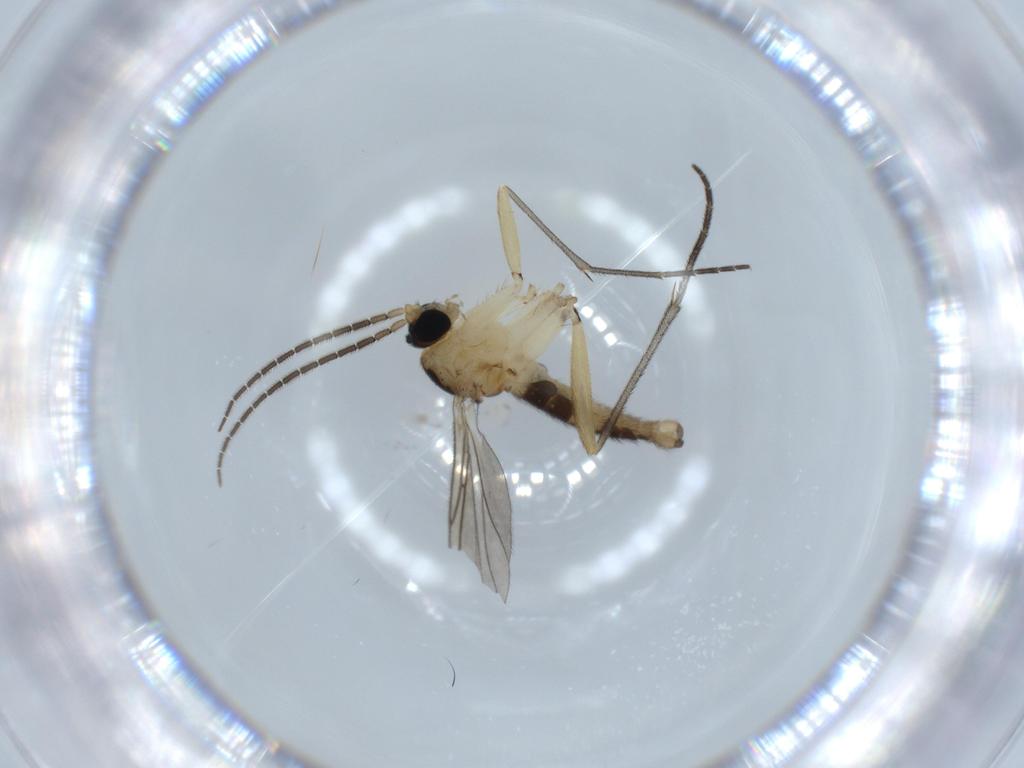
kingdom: Animalia
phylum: Arthropoda
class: Insecta
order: Diptera
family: Sciaridae
